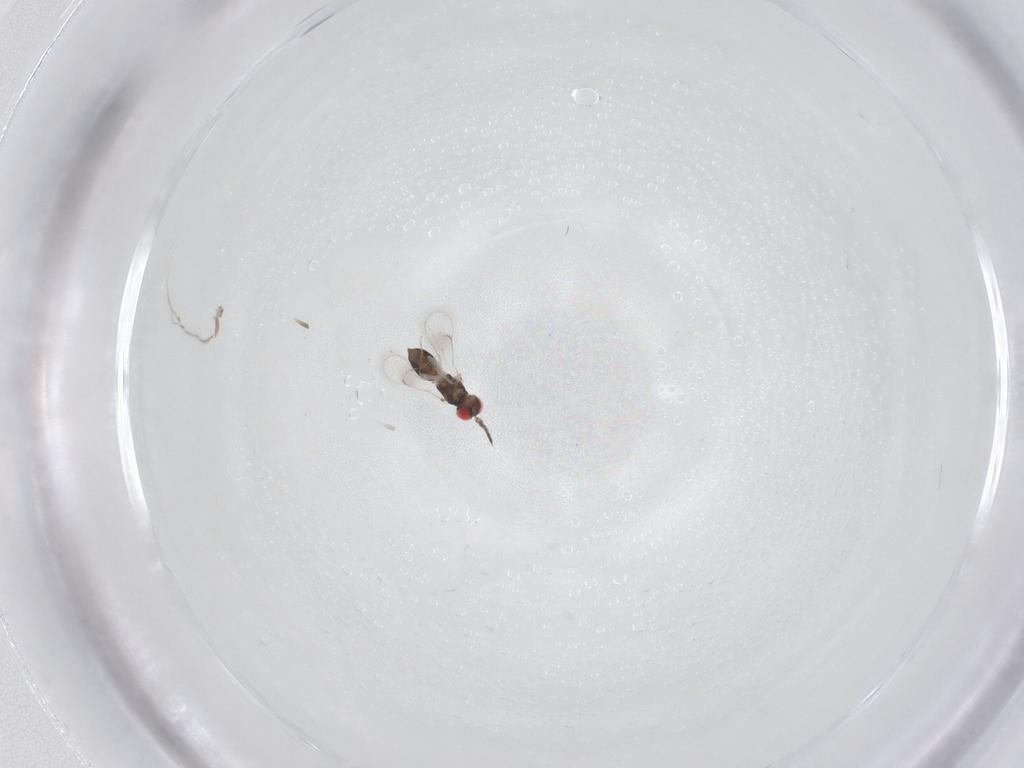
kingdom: Animalia
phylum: Arthropoda
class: Insecta
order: Hymenoptera
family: Eulophidae
